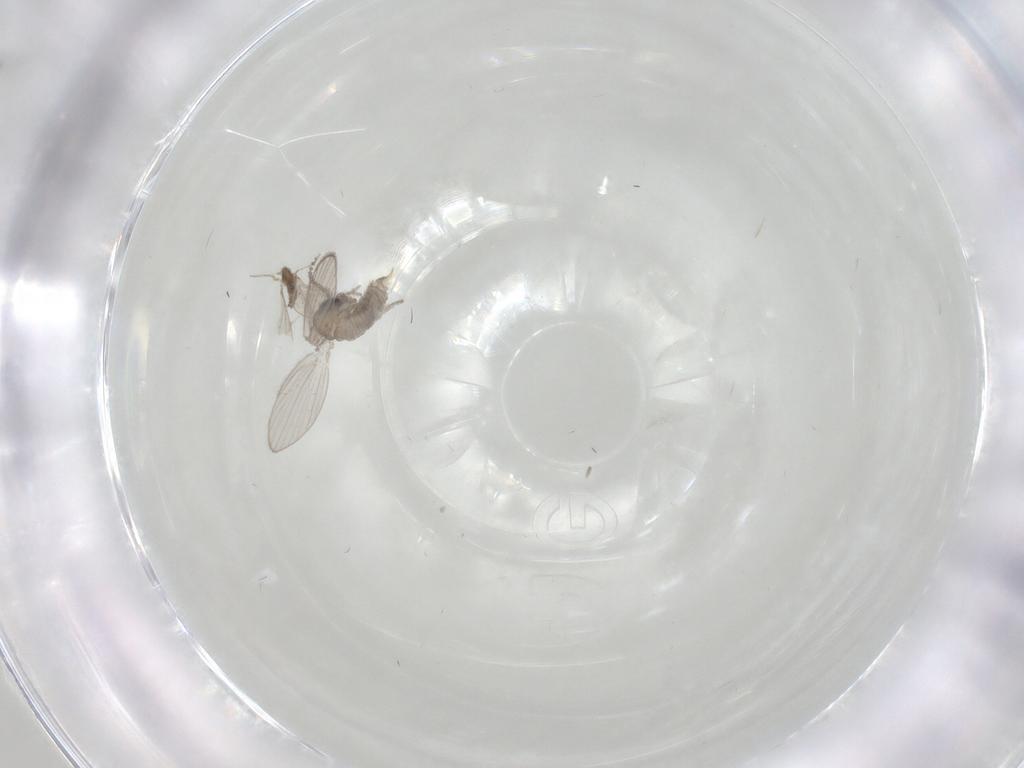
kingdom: Animalia
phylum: Arthropoda
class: Insecta
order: Diptera
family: Psychodidae
